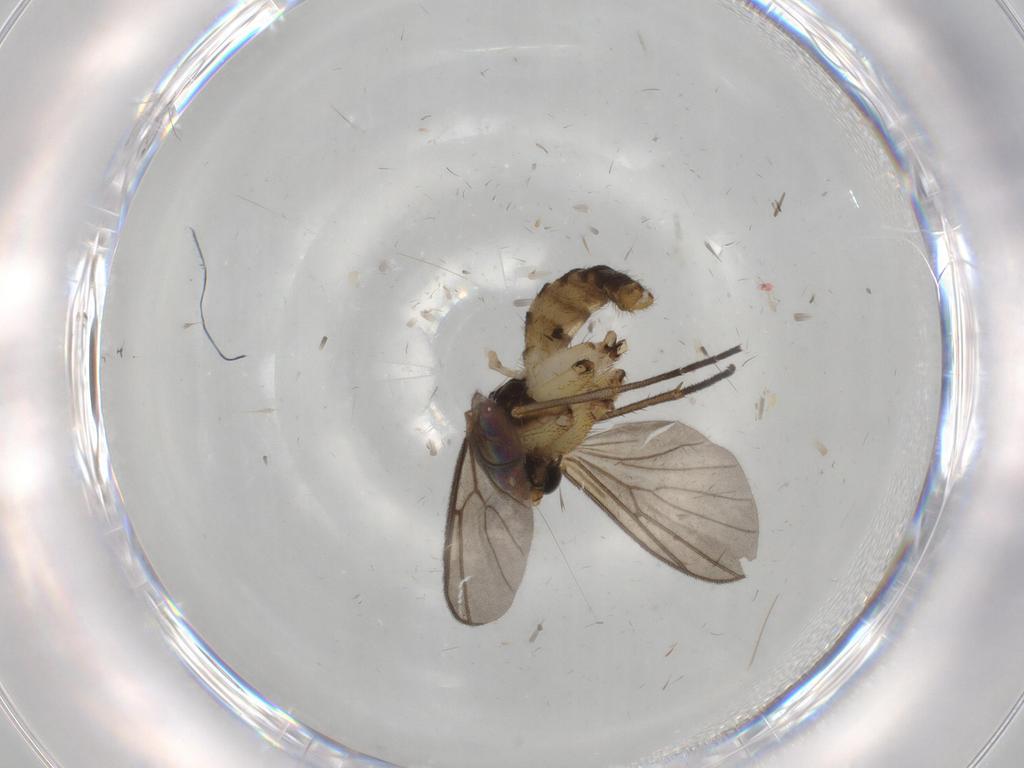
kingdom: Animalia
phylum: Arthropoda
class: Insecta
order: Diptera
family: Mycetophilidae
